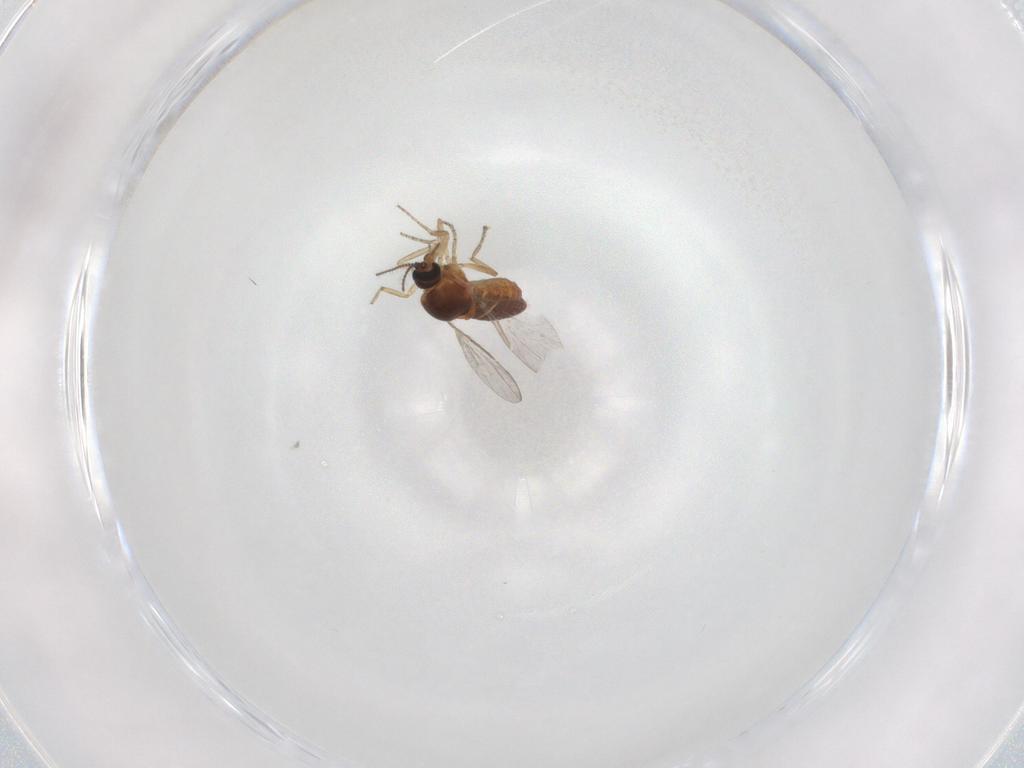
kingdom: Animalia
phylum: Arthropoda
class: Insecta
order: Diptera
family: Ceratopogonidae
